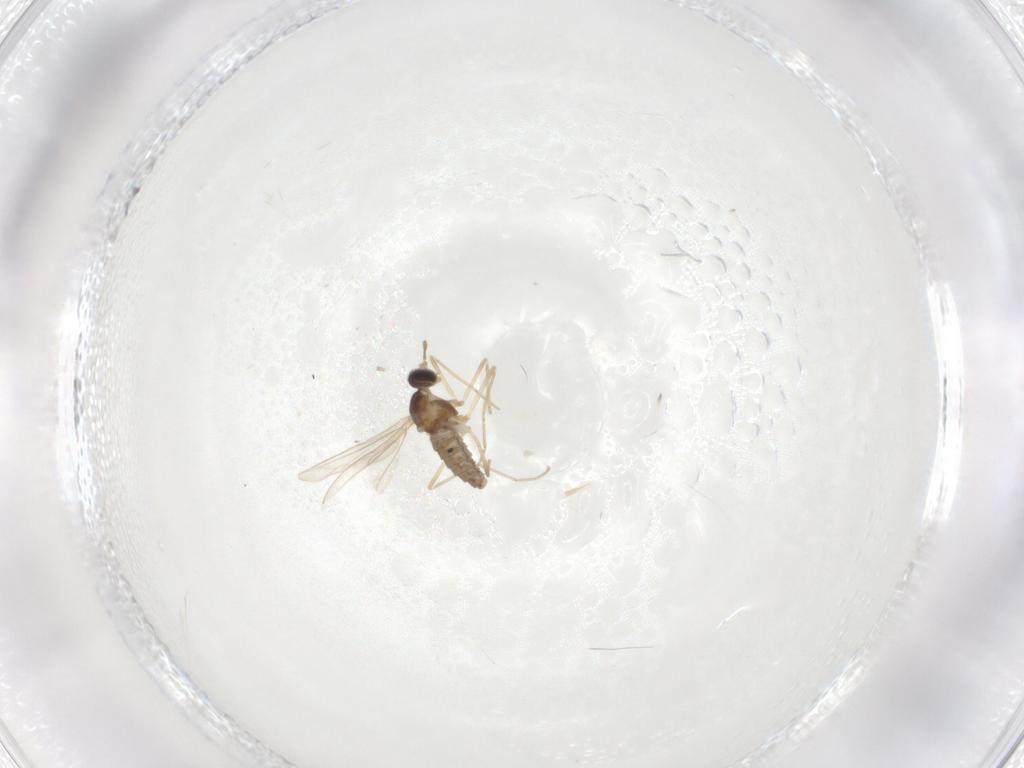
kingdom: Animalia
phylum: Arthropoda
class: Insecta
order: Diptera
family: Cecidomyiidae
